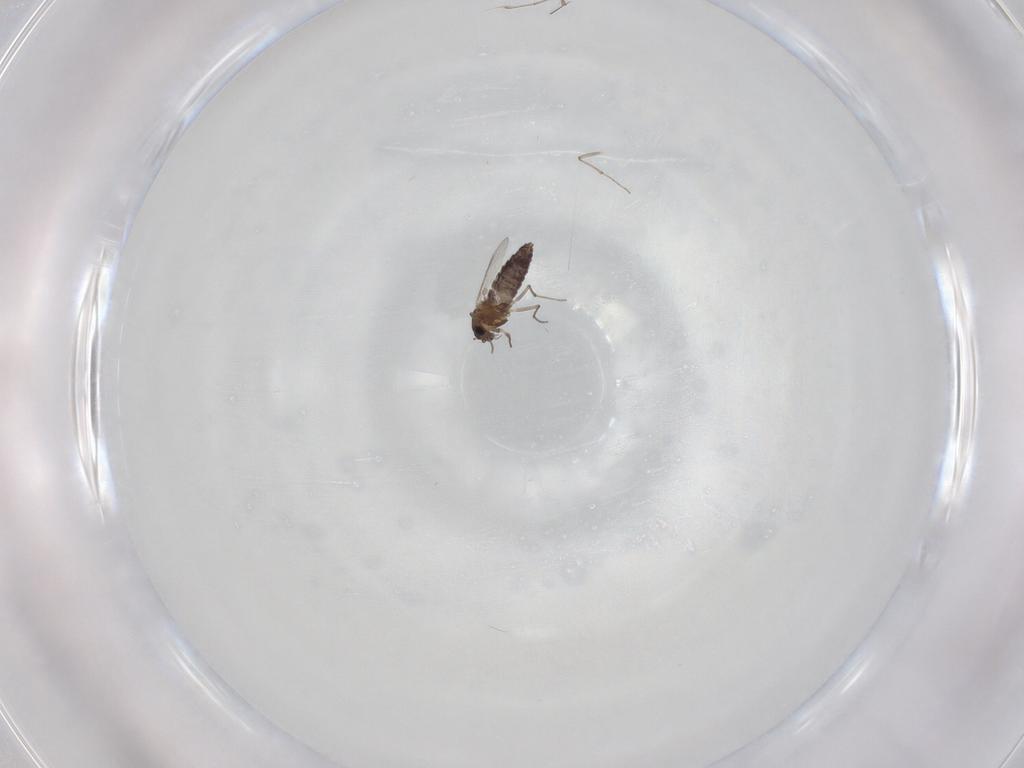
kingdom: Animalia
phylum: Arthropoda
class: Insecta
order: Diptera
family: Chironomidae
